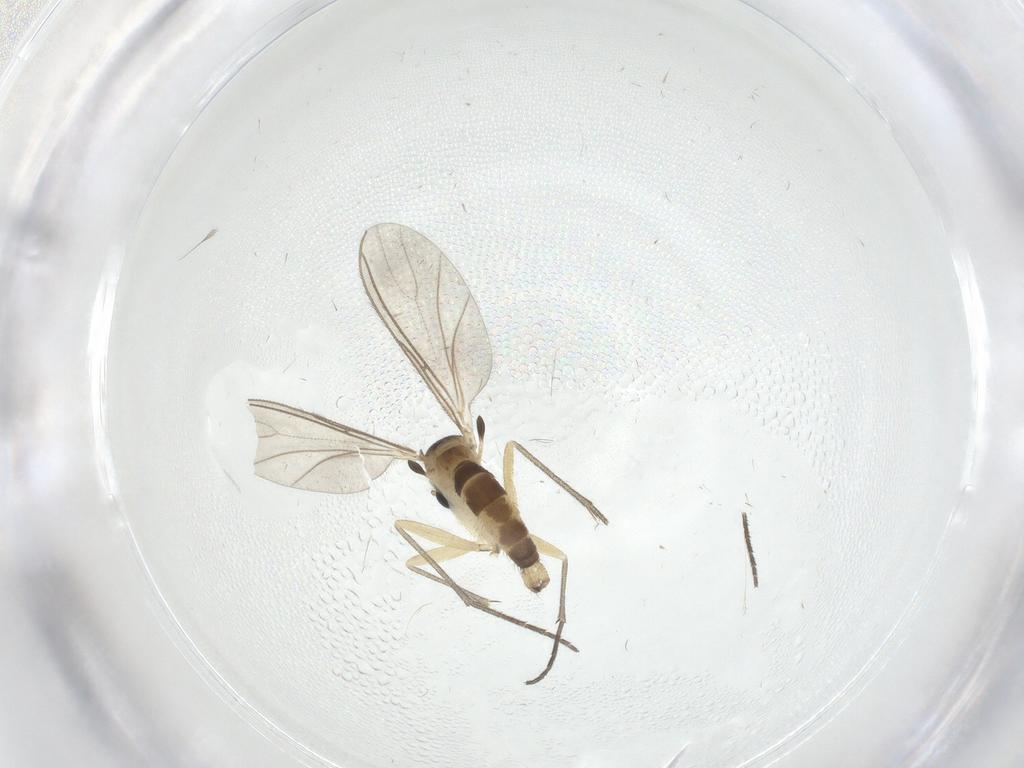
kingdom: Animalia
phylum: Arthropoda
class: Insecta
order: Diptera
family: Sciaridae
